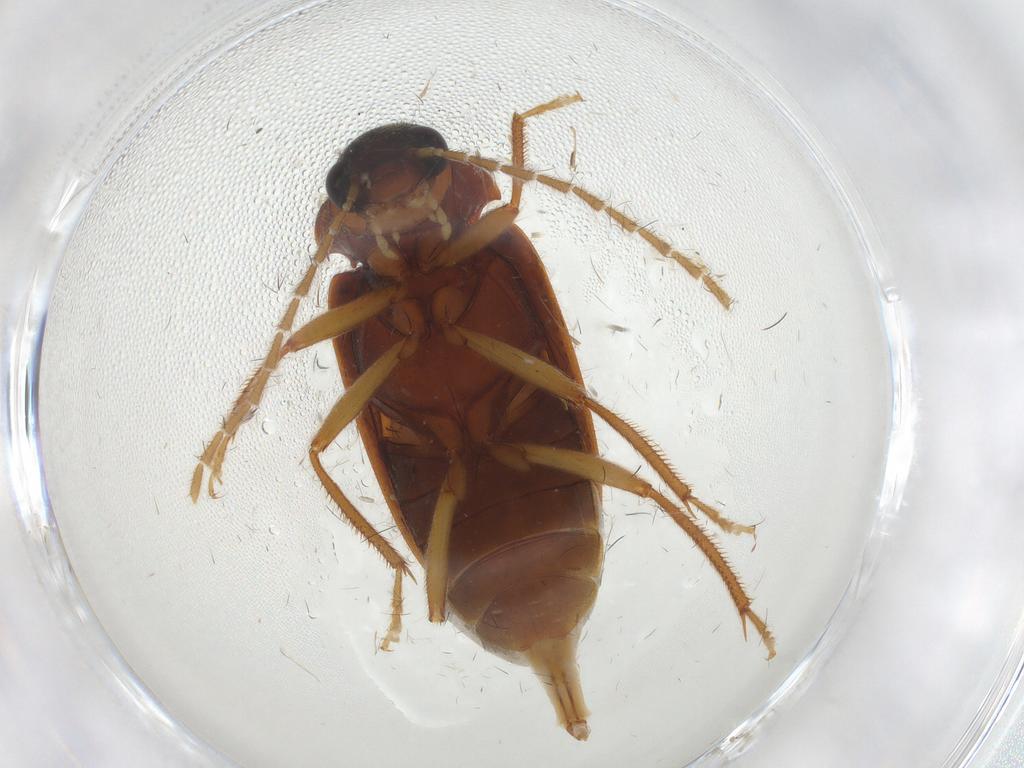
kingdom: Animalia
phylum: Arthropoda
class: Insecta
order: Coleoptera
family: Ptilodactylidae
